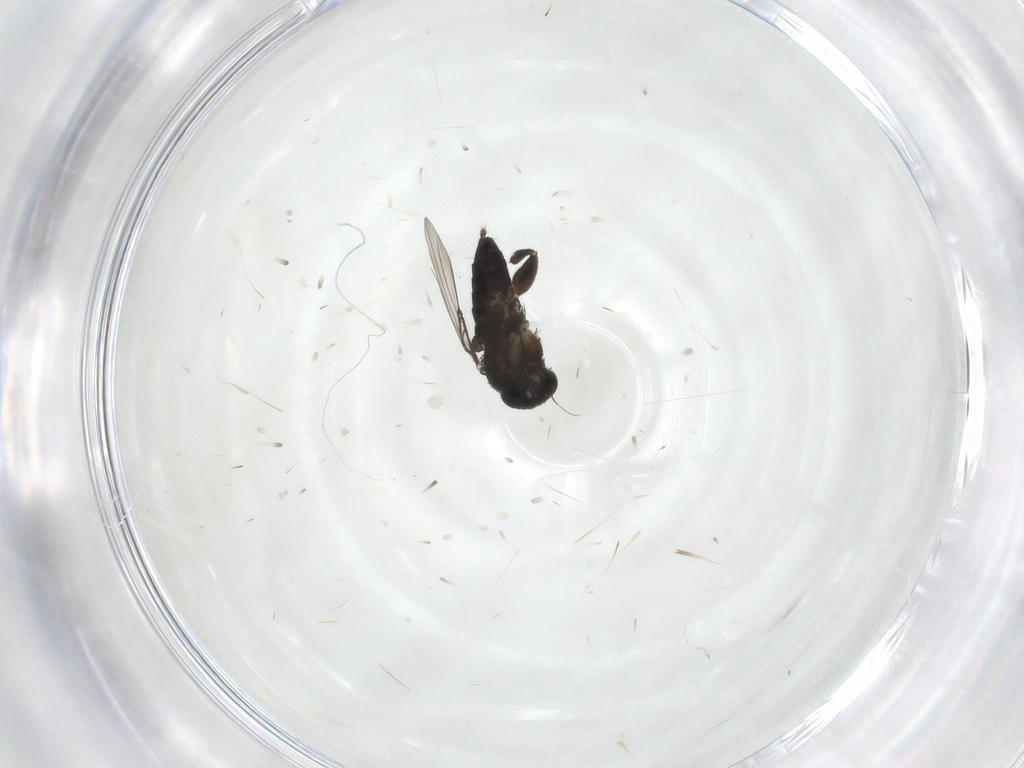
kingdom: Animalia
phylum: Arthropoda
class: Insecta
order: Diptera
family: Phoridae
